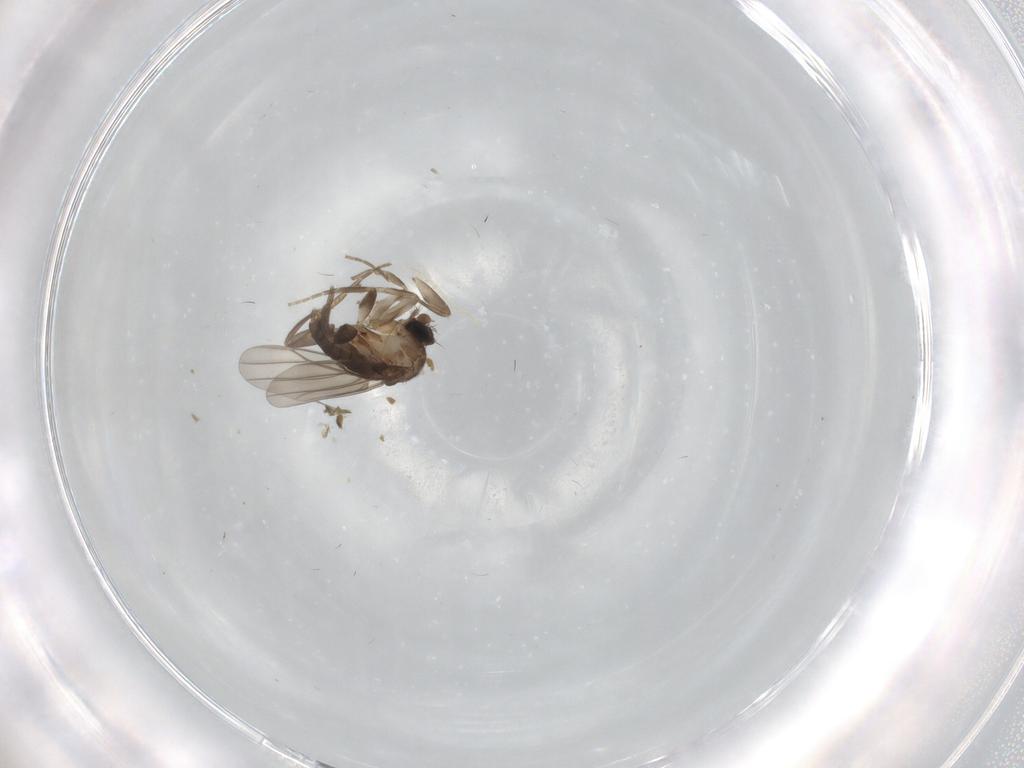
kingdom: Animalia
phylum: Arthropoda
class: Insecta
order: Diptera
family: Phoridae
